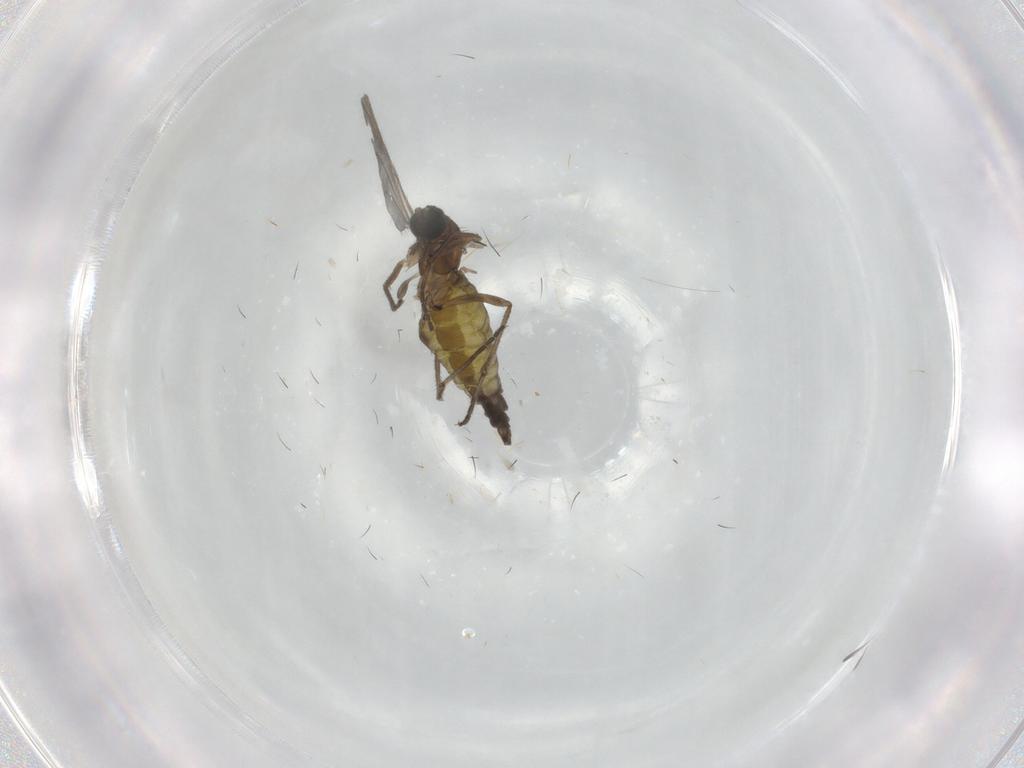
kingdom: Animalia
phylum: Arthropoda
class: Insecta
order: Diptera
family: Sciaridae
